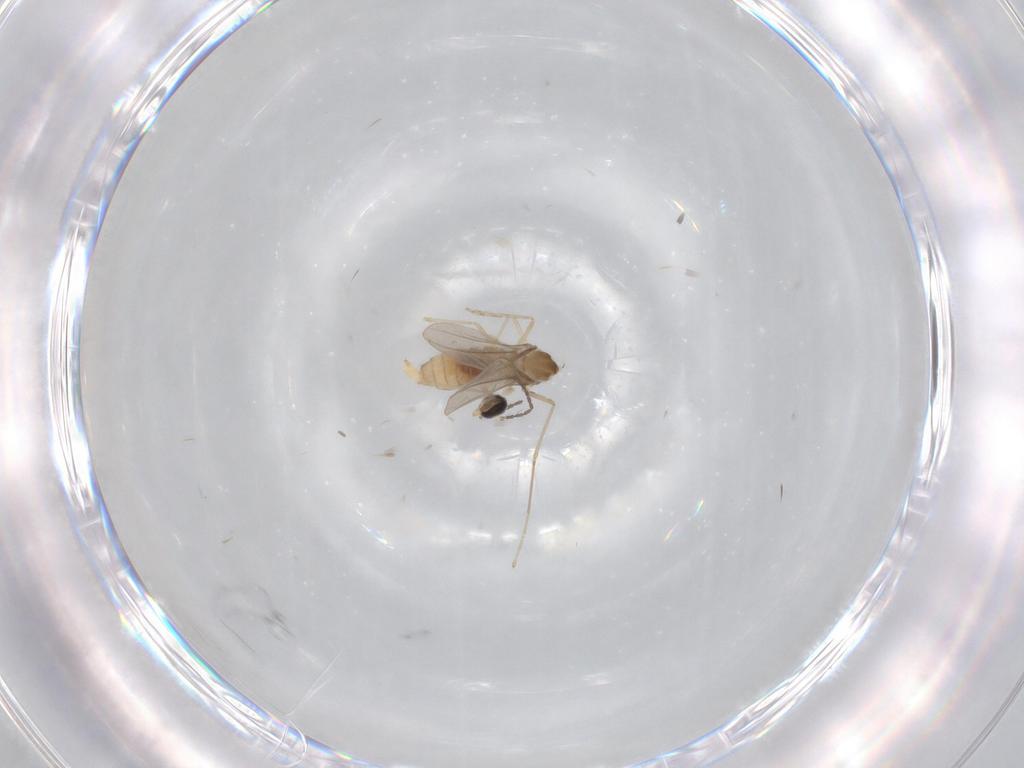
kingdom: Animalia
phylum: Arthropoda
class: Insecta
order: Diptera
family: Cecidomyiidae
